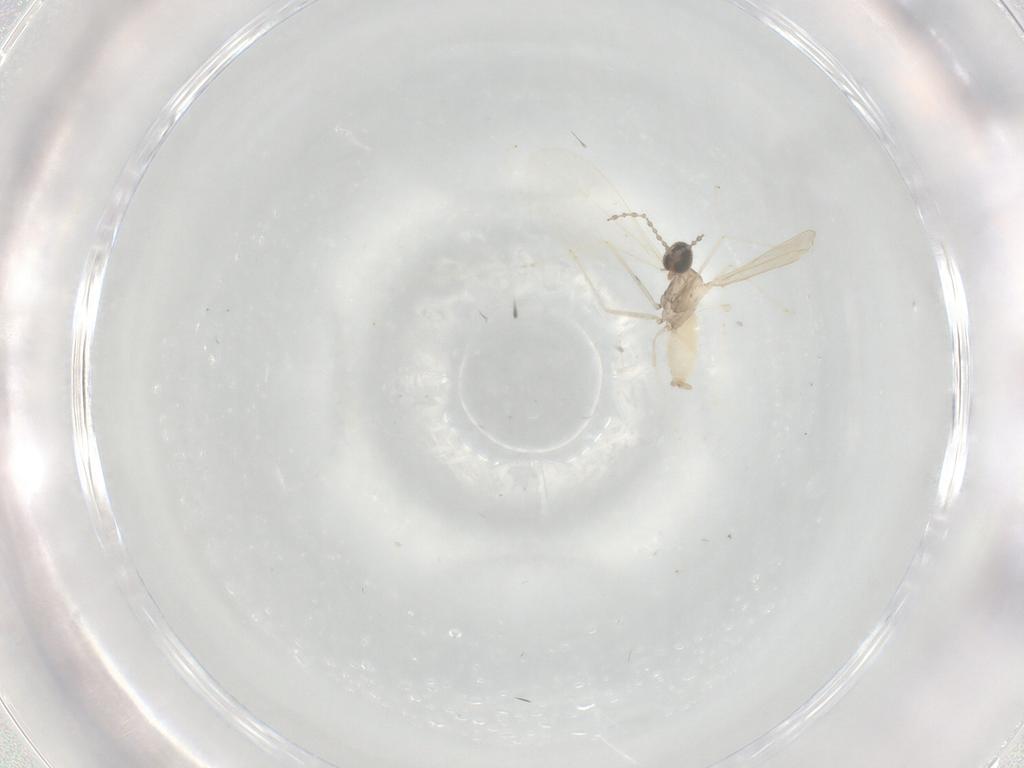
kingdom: Animalia
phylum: Arthropoda
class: Insecta
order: Diptera
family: Cecidomyiidae
